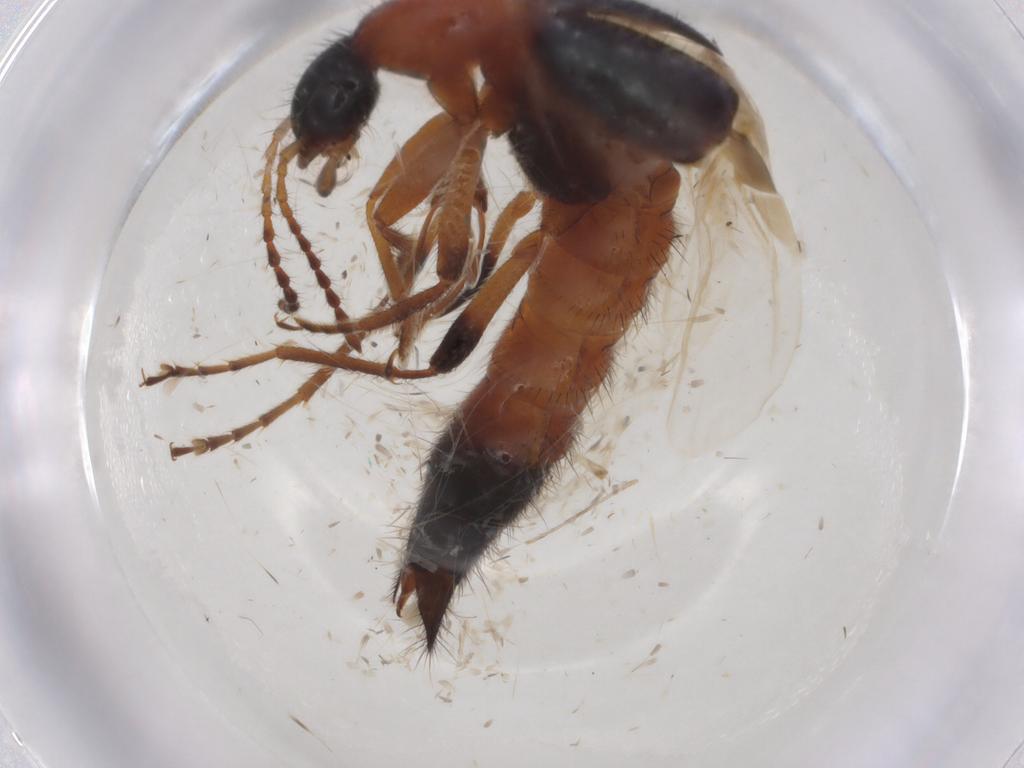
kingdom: Animalia
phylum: Arthropoda
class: Insecta
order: Coleoptera
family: Staphylinidae
